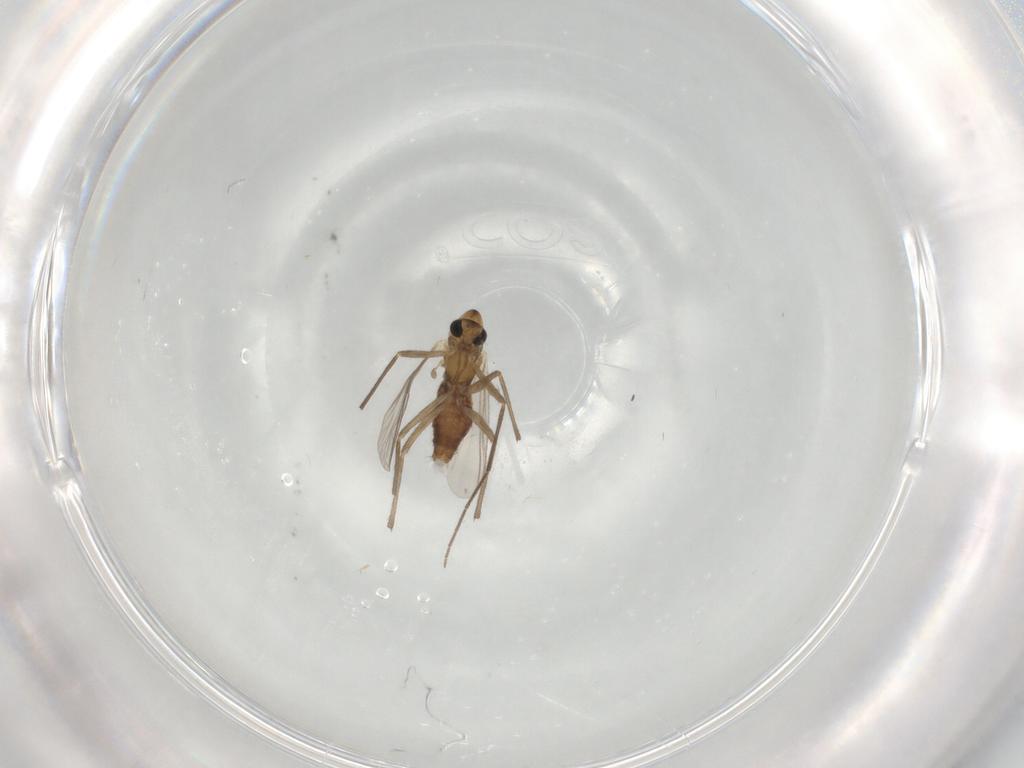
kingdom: Animalia
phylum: Arthropoda
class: Insecta
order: Diptera
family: Chironomidae
